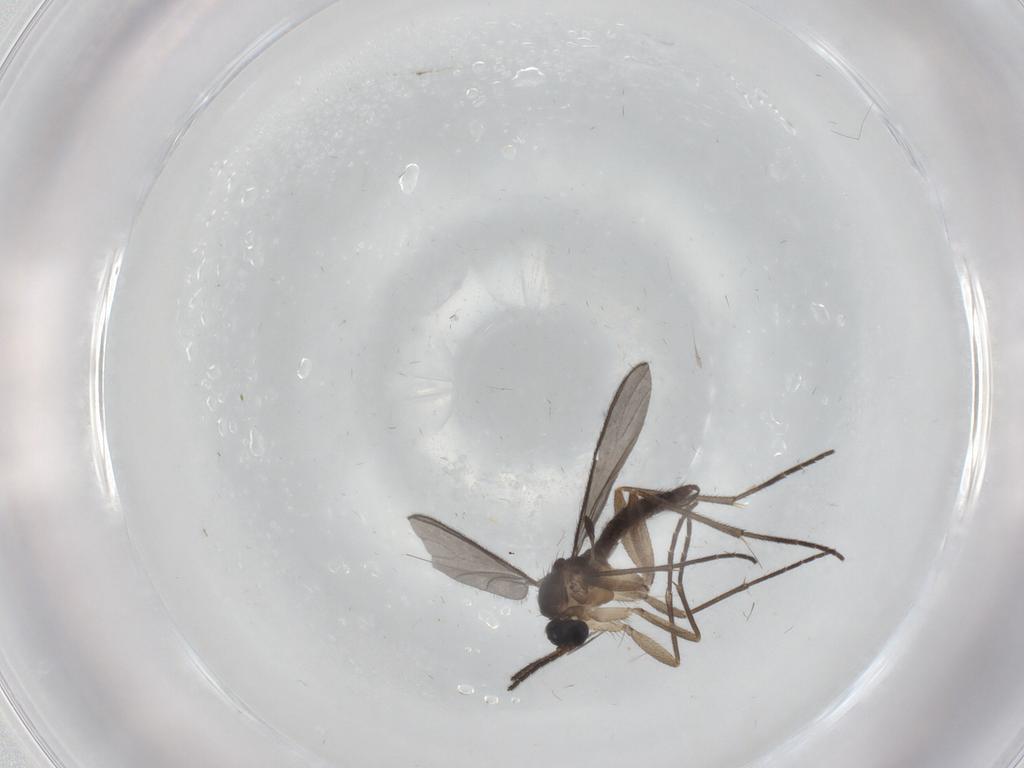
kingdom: Animalia
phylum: Arthropoda
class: Insecta
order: Diptera
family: Sciaridae
